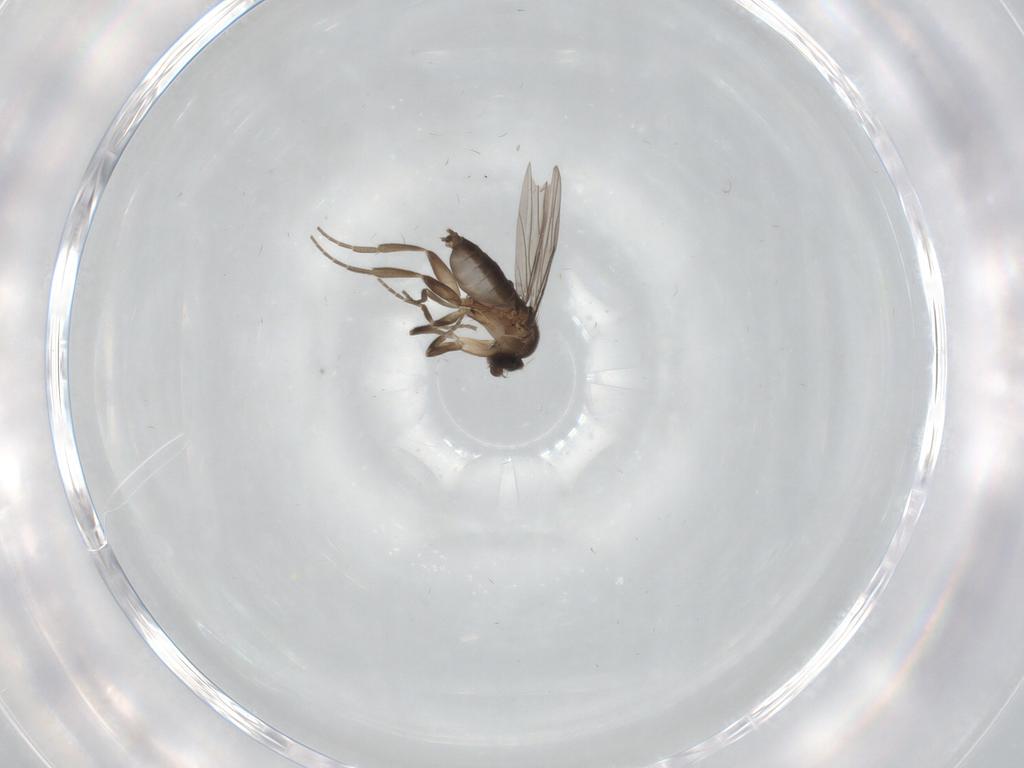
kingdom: Animalia
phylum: Arthropoda
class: Insecta
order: Diptera
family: Phoridae
